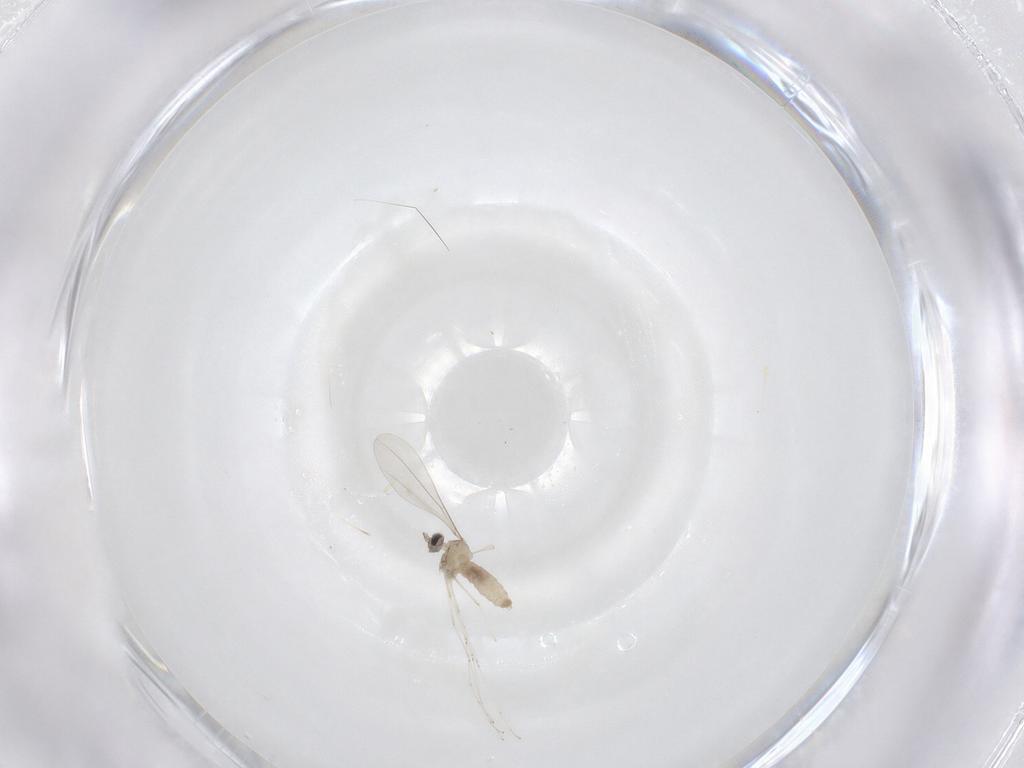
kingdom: Animalia
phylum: Arthropoda
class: Insecta
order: Diptera
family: Cecidomyiidae
